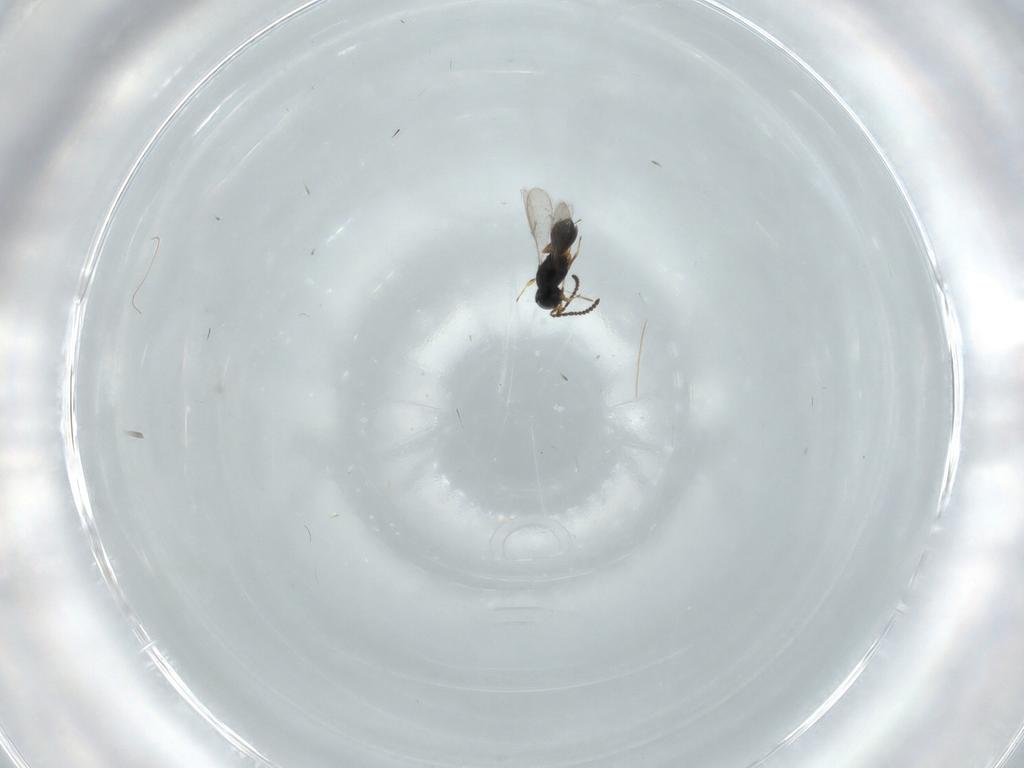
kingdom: Animalia
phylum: Arthropoda
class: Insecta
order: Hymenoptera
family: Scelionidae
